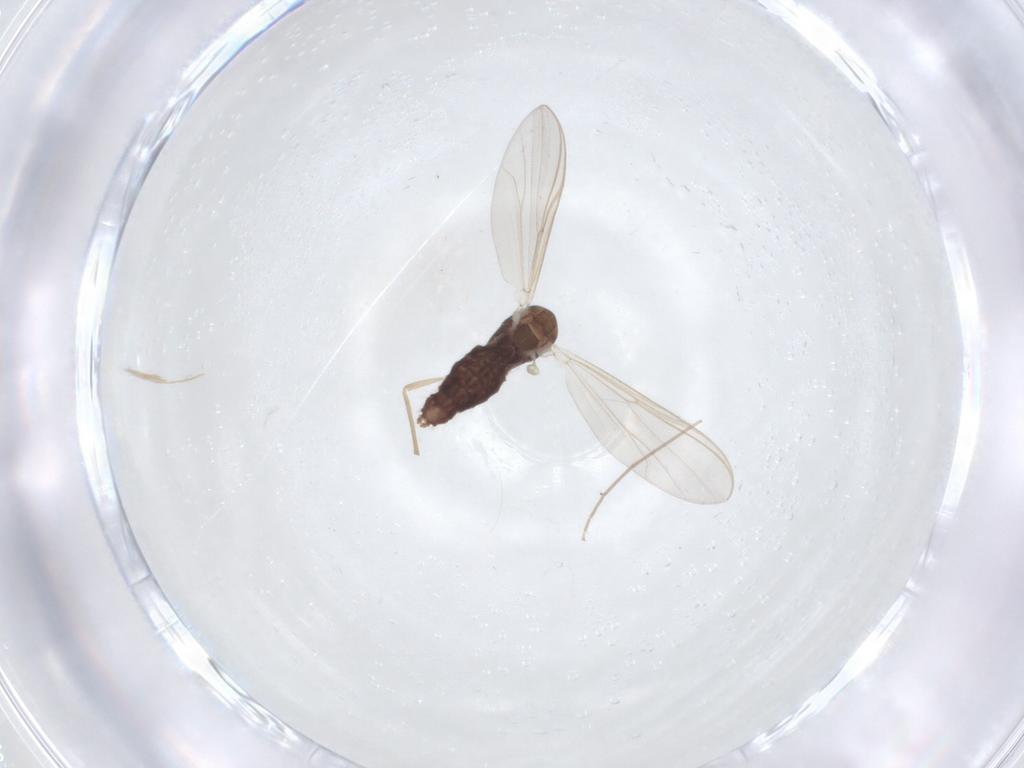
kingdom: Animalia
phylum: Arthropoda
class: Insecta
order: Diptera
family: Chironomidae
